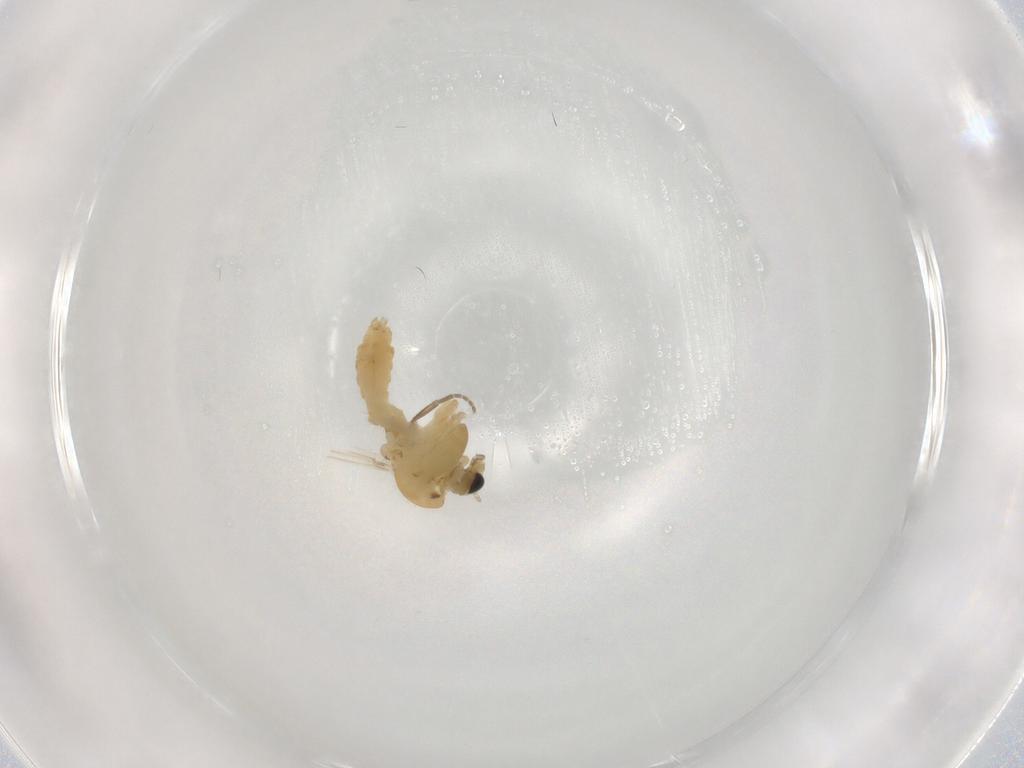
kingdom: Animalia
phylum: Arthropoda
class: Insecta
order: Diptera
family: Chironomidae
